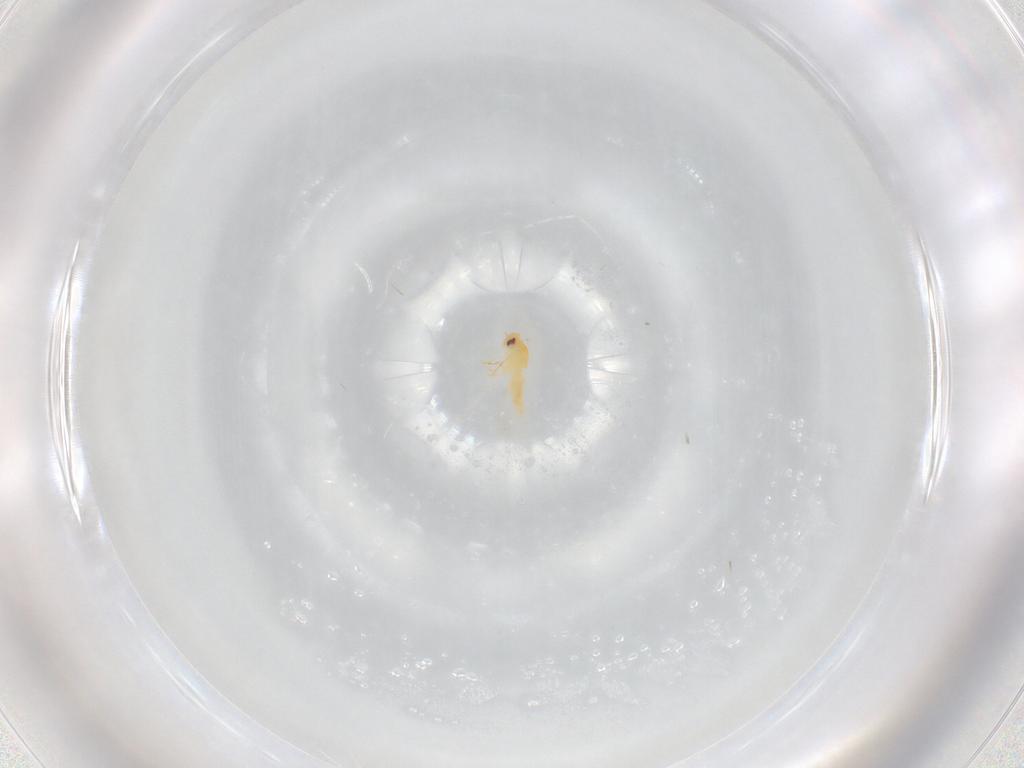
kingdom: Animalia
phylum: Arthropoda
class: Insecta
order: Hemiptera
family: Aleyrodidae
